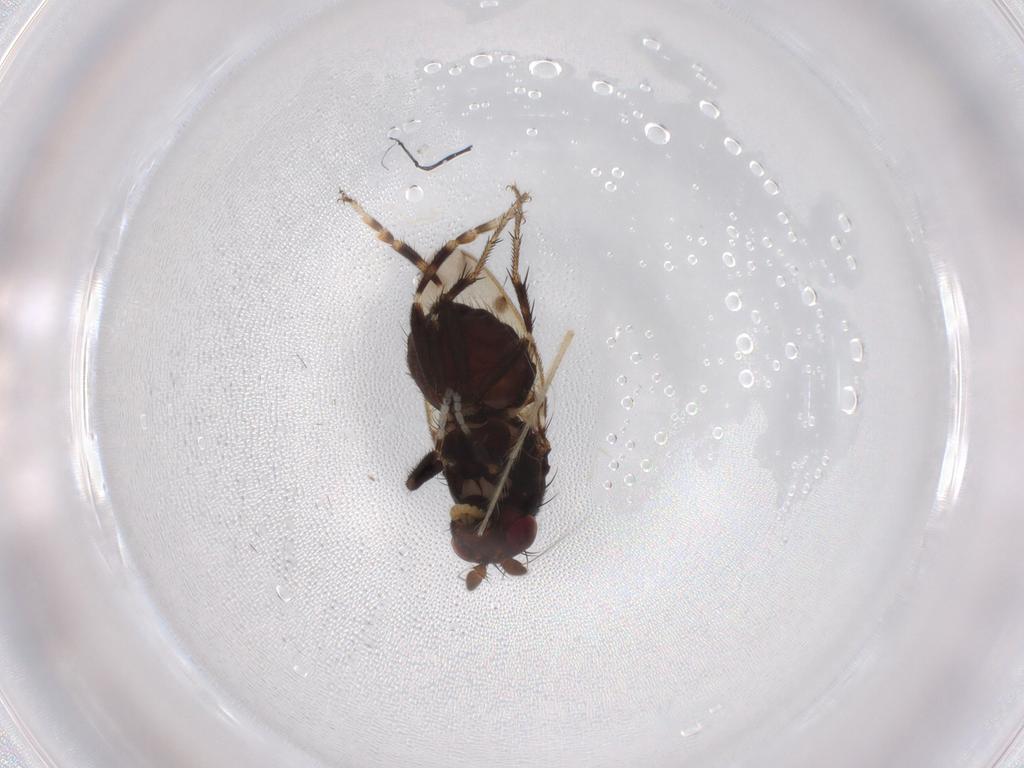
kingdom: Animalia
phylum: Arthropoda
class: Insecta
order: Diptera
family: Sphaeroceridae
